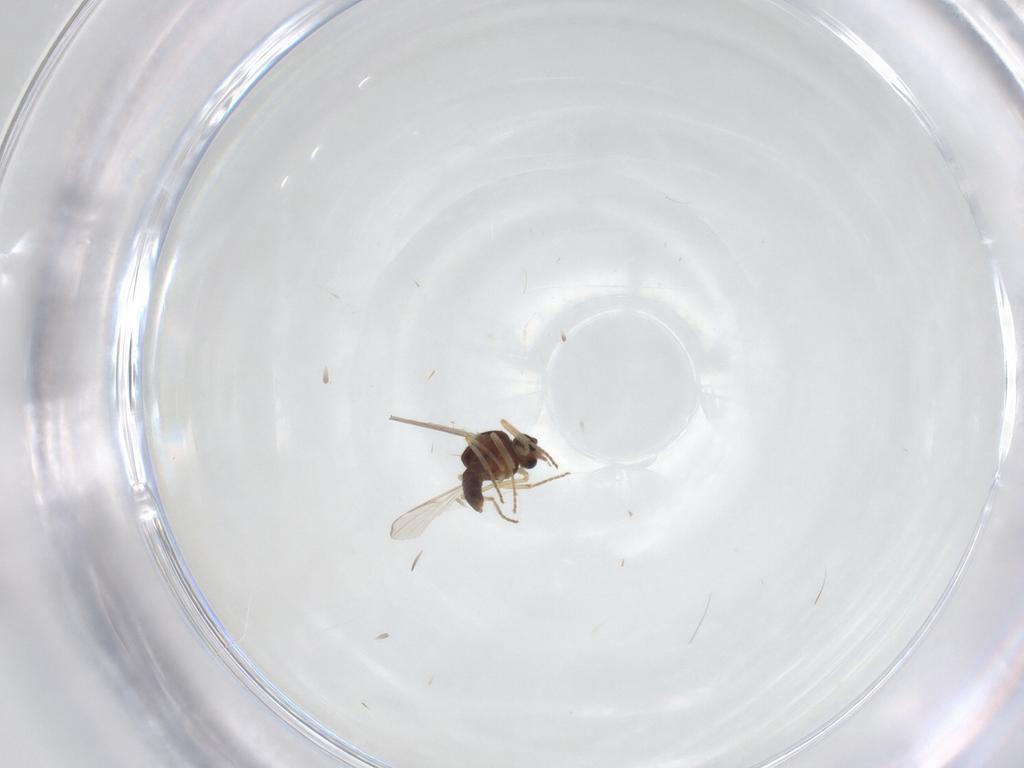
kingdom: Animalia
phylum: Arthropoda
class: Insecta
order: Diptera
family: Ceratopogonidae
